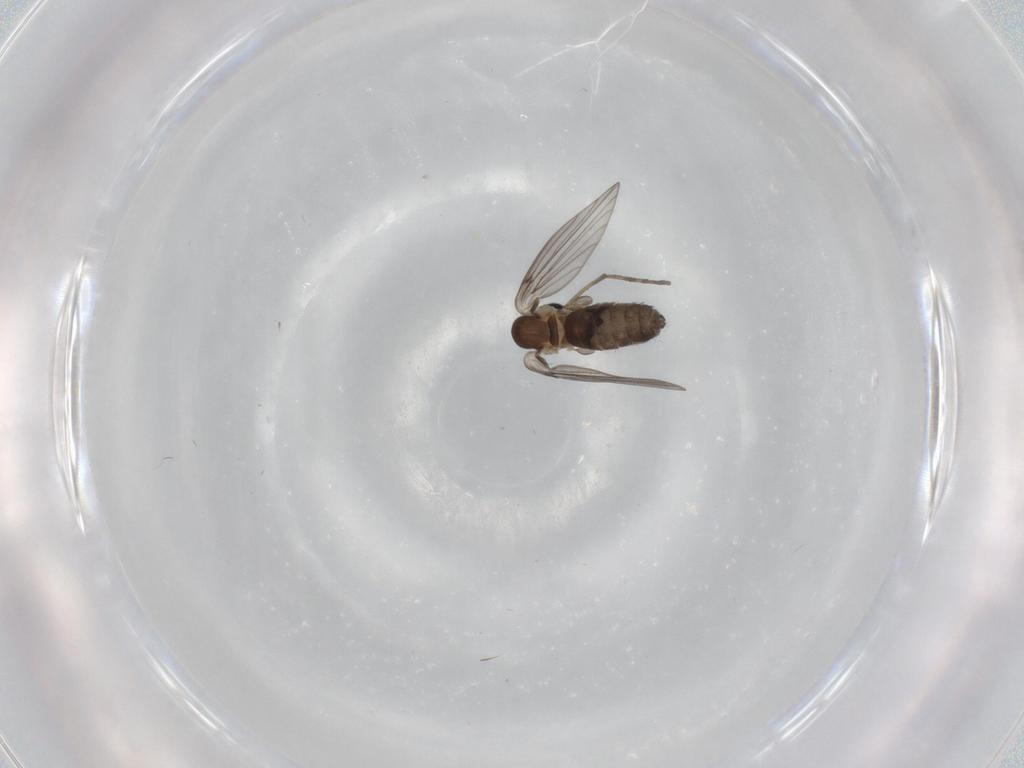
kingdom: Animalia
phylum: Arthropoda
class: Insecta
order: Diptera
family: Psychodidae
